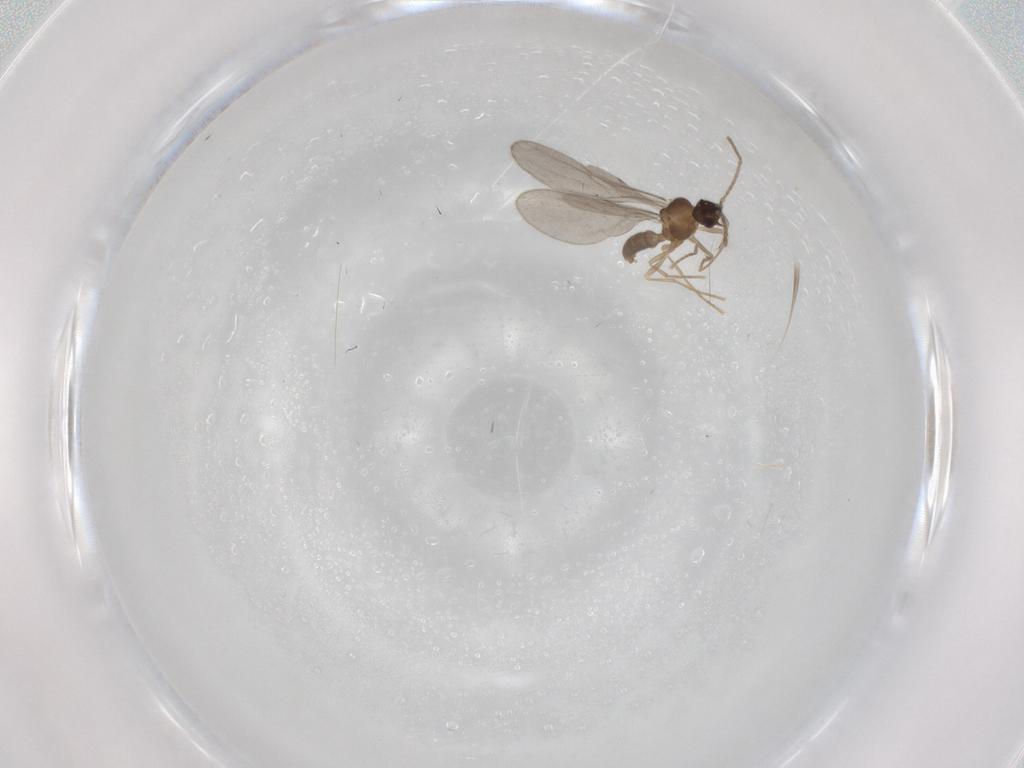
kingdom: Animalia
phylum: Arthropoda
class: Insecta
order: Hymenoptera
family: Formicidae
